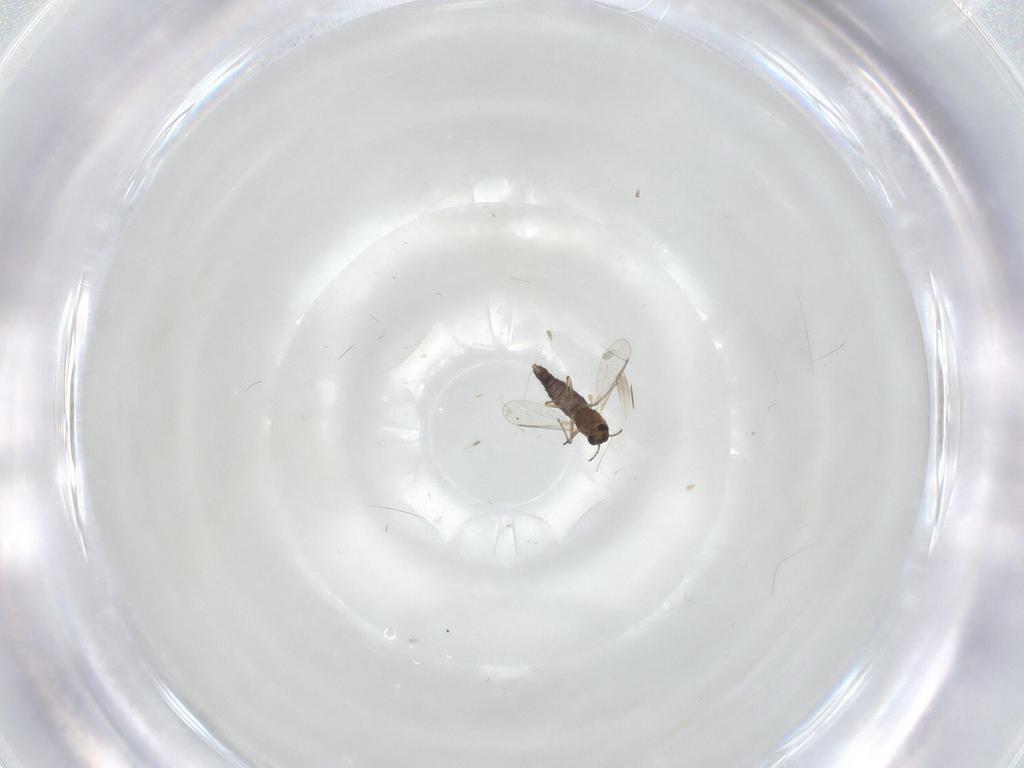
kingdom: Animalia
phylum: Arthropoda
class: Insecta
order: Diptera
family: Chironomidae
